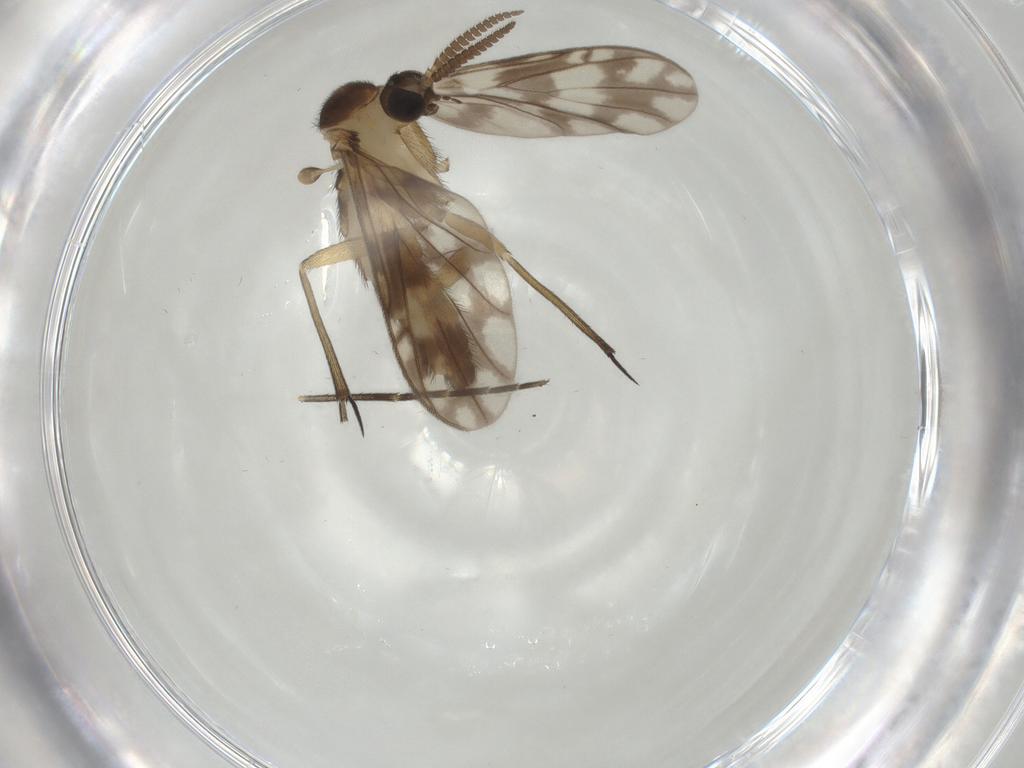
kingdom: Animalia
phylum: Arthropoda
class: Insecta
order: Diptera
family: Keroplatidae
